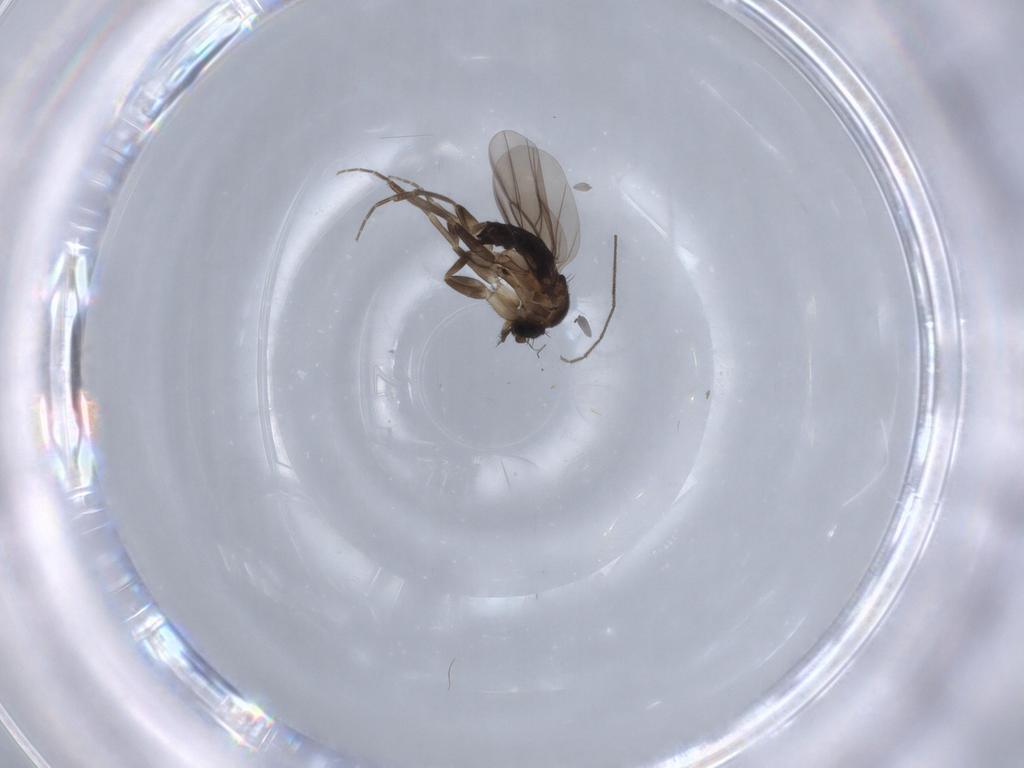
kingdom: Animalia
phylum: Arthropoda
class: Insecta
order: Diptera
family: Chironomidae
